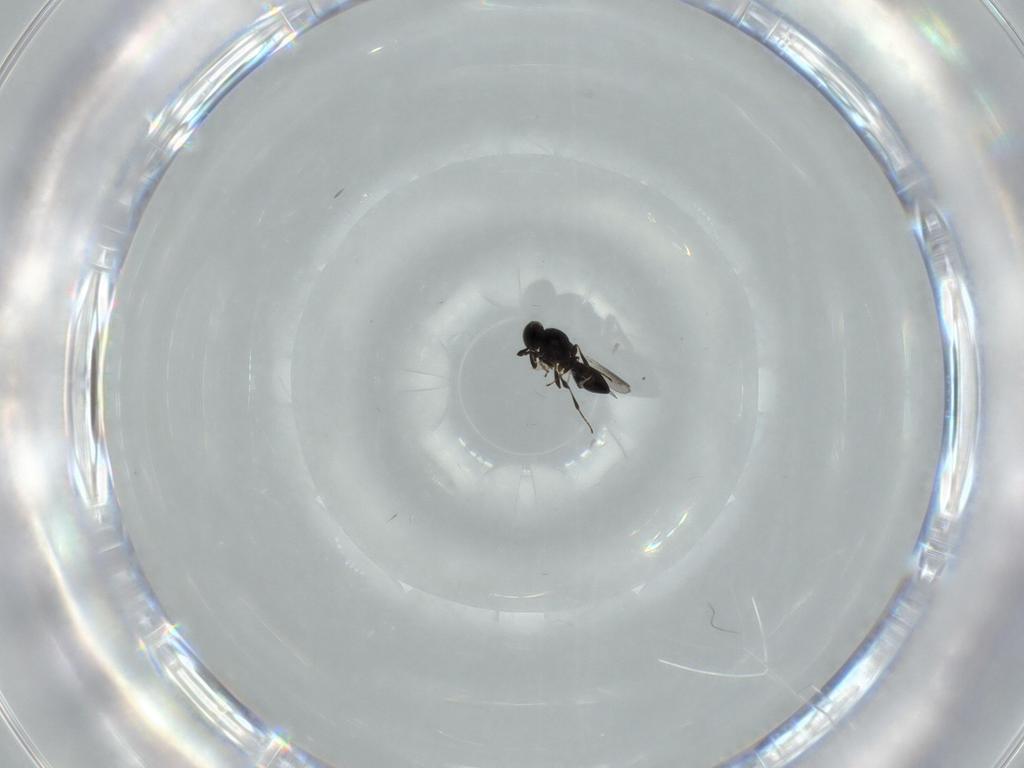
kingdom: Animalia
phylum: Arthropoda
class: Insecta
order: Hymenoptera
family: Platygastridae
